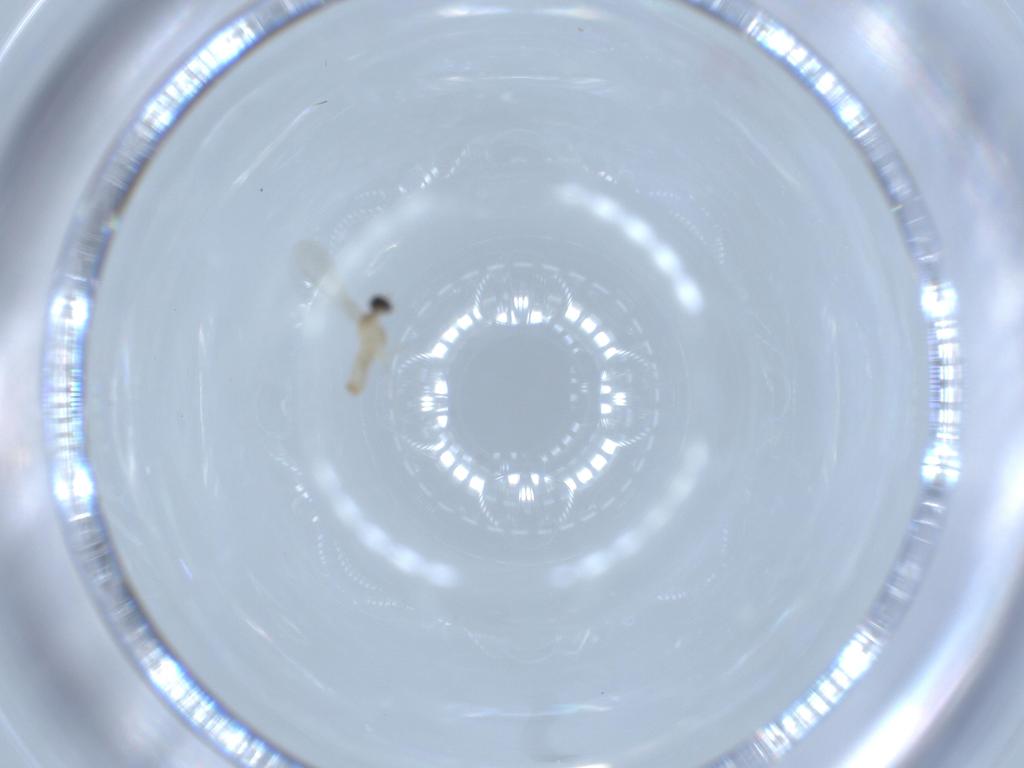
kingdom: Animalia
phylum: Arthropoda
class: Insecta
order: Diptera
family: Cecidomyiidae
